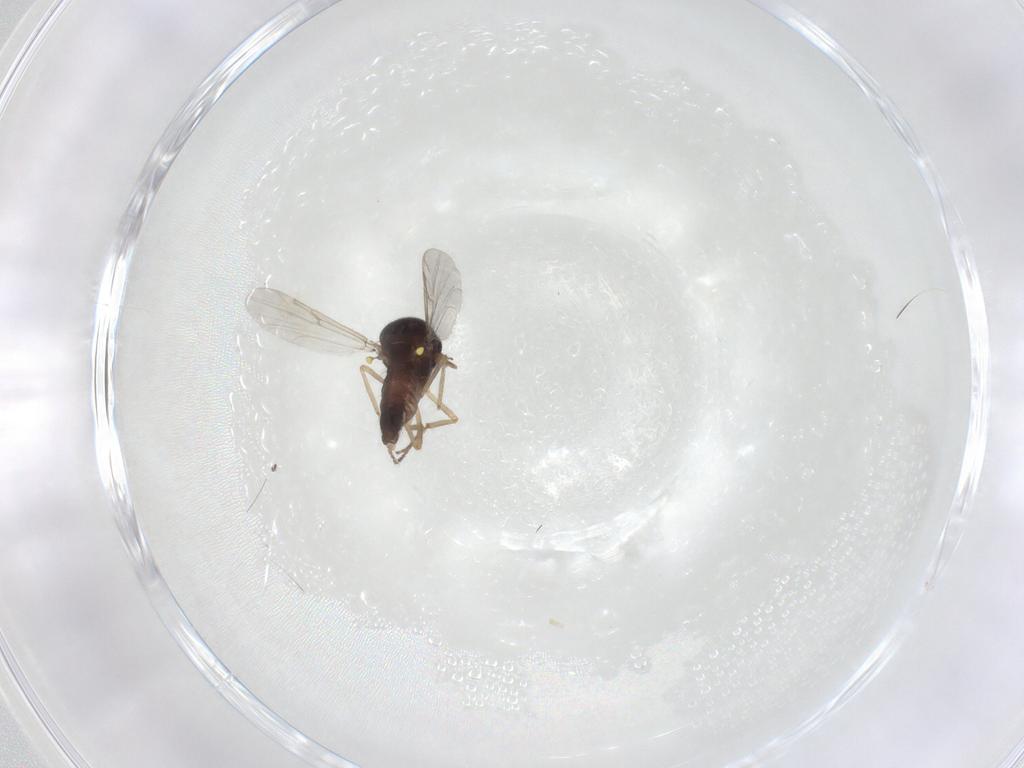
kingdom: Animalia
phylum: Arthropoda
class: Insecta
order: Diptera
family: Ceratopogonidae
